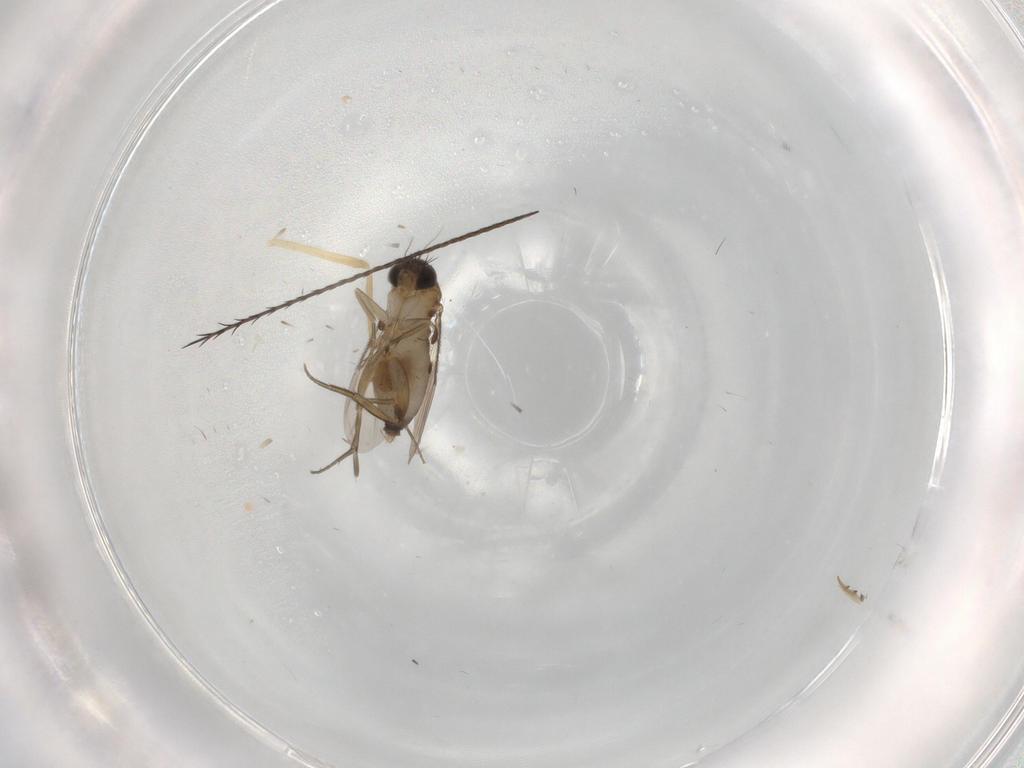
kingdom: Animalia
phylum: Arthropoda
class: Insecta
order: Diptera
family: Phoridae
